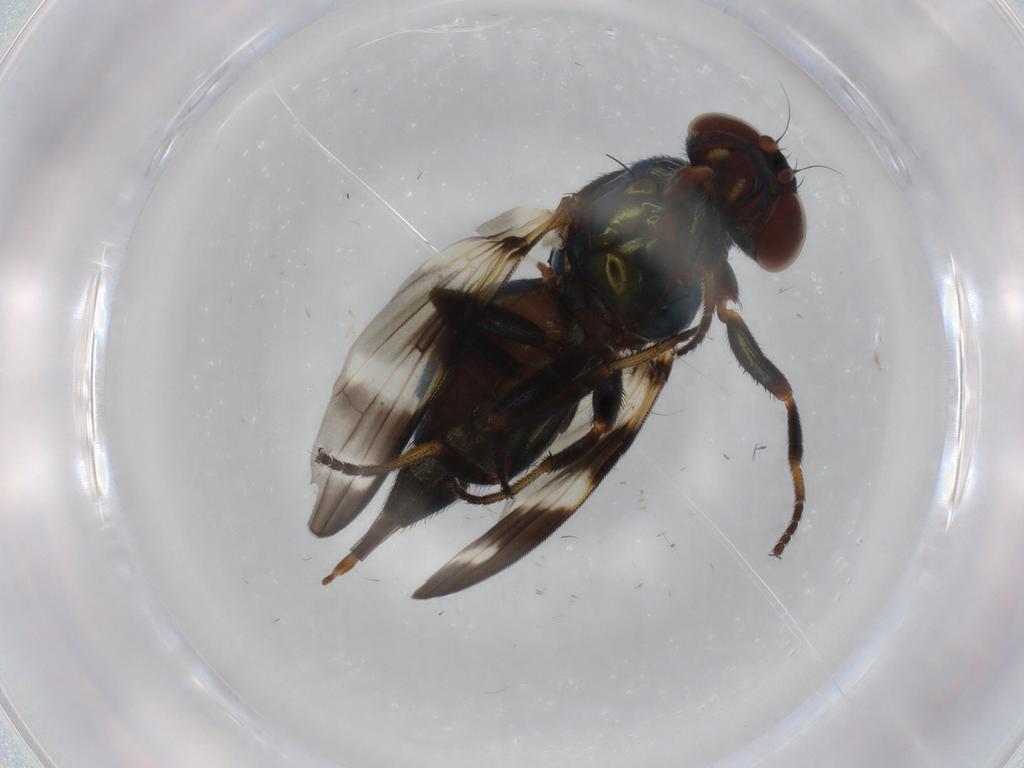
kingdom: Animalia
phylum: Arthropoda
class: Insecta
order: Diptera
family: Ulidiidae
